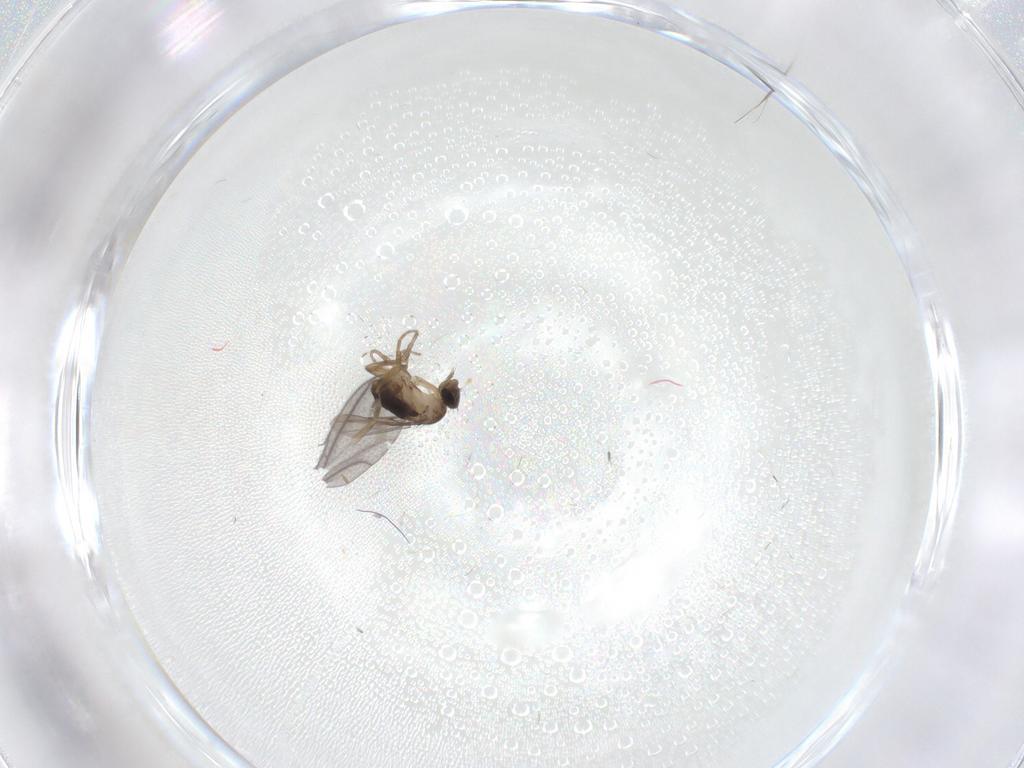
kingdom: Animalia
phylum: Arthropoda
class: Insecta
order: Diptera
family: Phoridae
